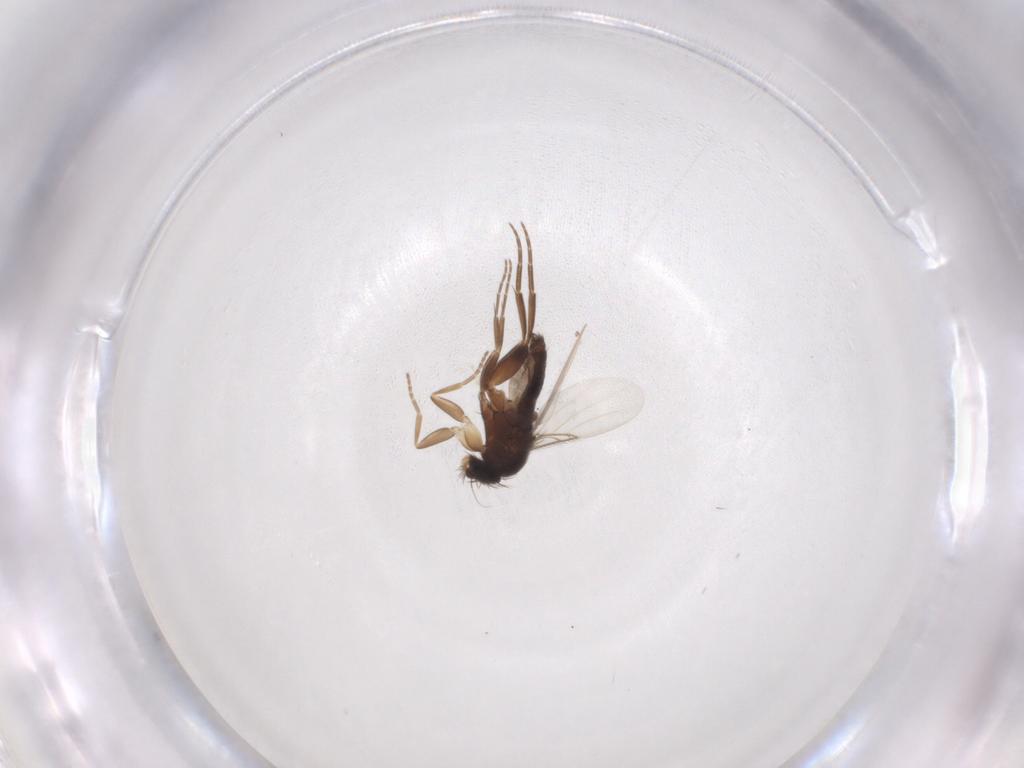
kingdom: Animalia
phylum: Arthropoda
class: Insecta
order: Diptera
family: Phoridae
